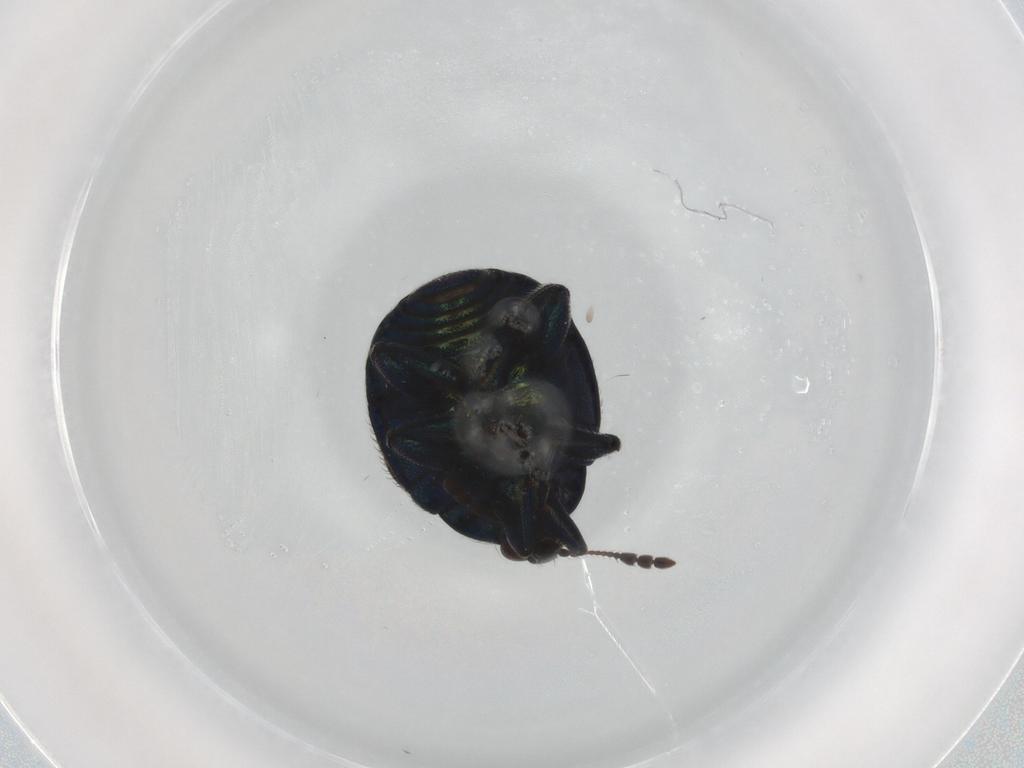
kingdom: Animalia
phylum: Arthropoda
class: Insecta
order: Coleoptera
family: Attelabidae
